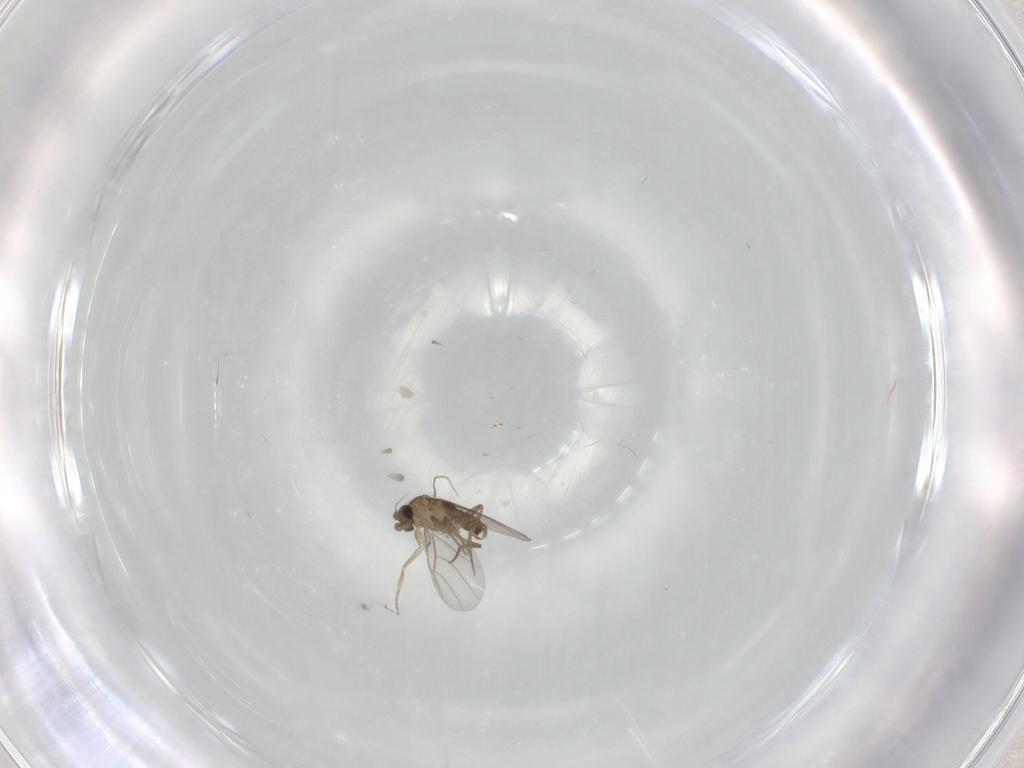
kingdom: Animalia
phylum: Arthropoda
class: Insecta
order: Diptera
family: Phoridae
